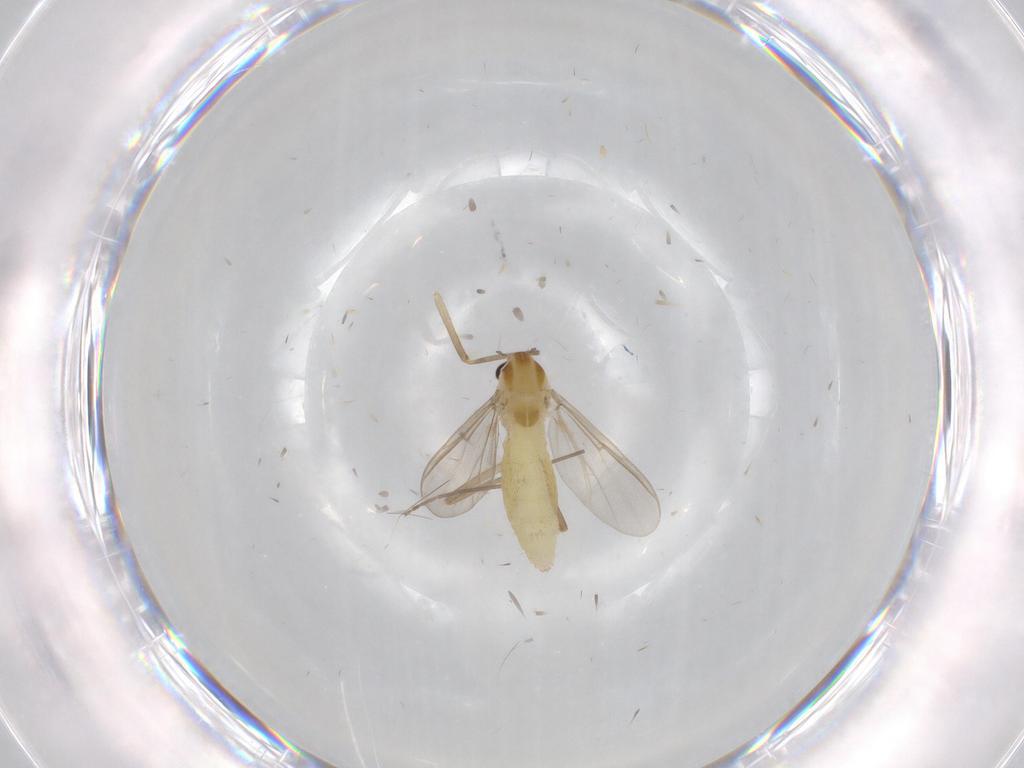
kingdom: Animalia
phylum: Arthropoda
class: Insecta
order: Diptera
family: Chironomidae
